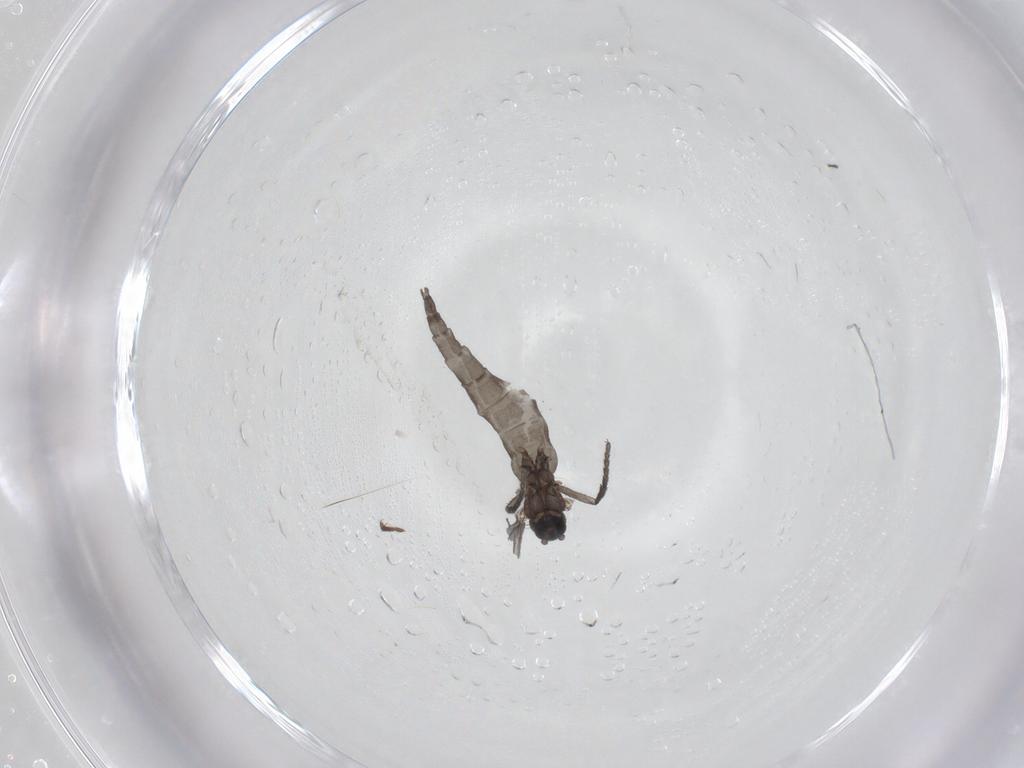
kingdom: Animalia
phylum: Arthropoda
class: Insecta
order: Diptera
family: Sciaridae
